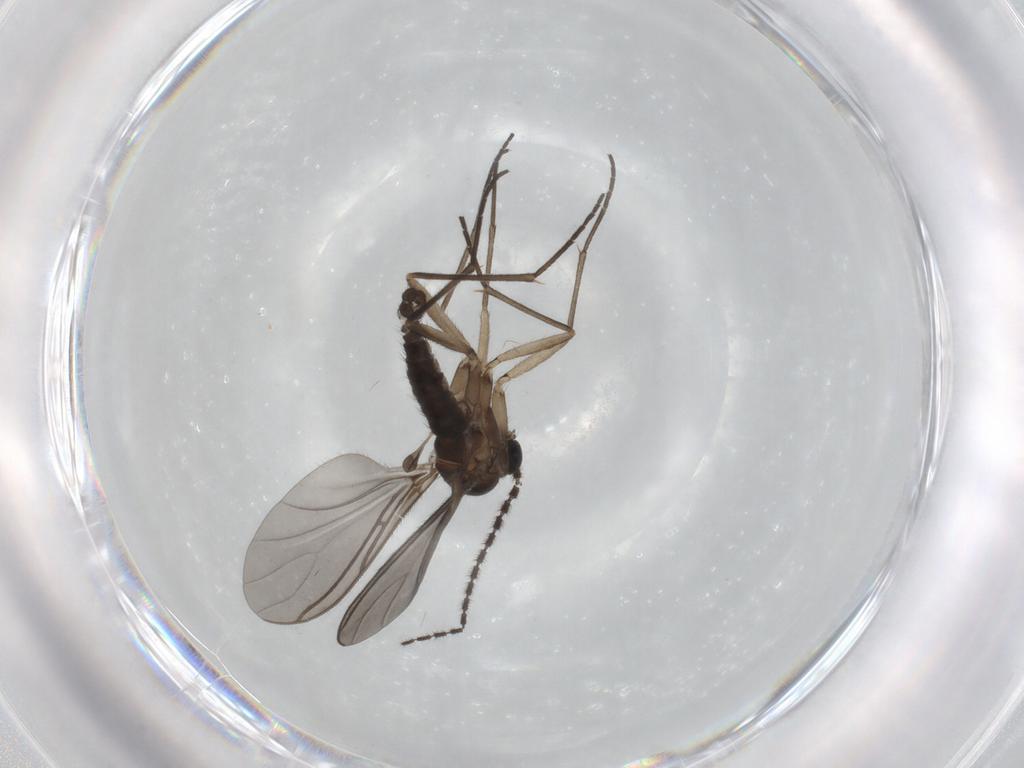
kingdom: Animalia
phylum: Arthropoda
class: Insecta
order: Diptera
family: Sciaridae
